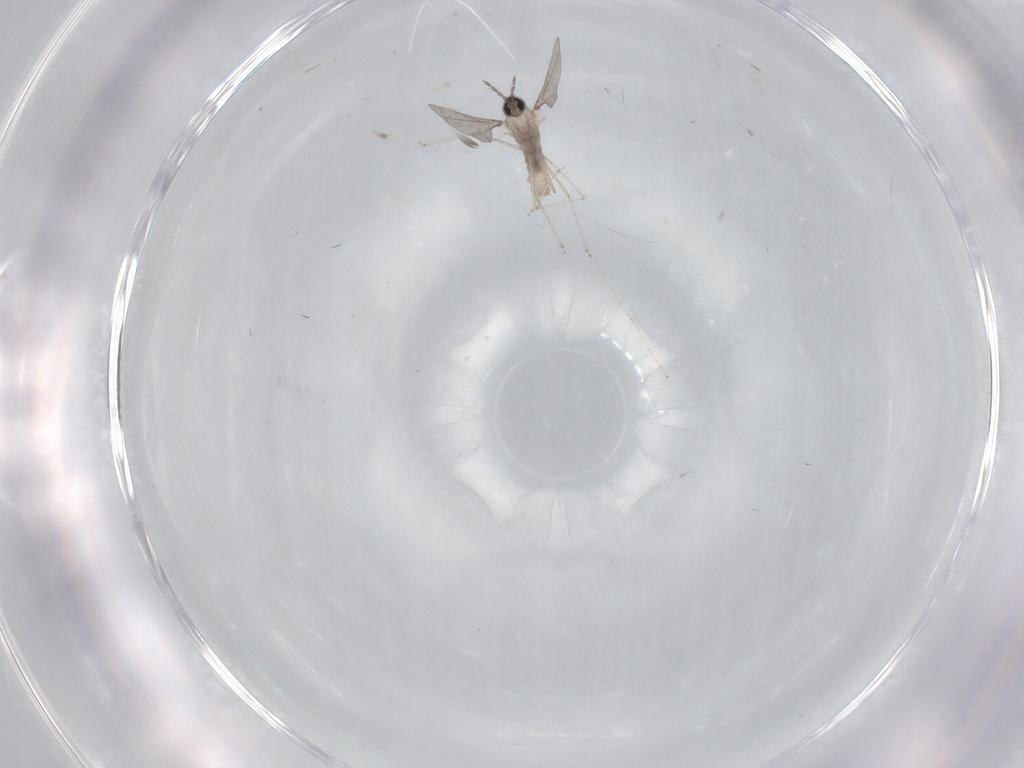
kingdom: Animalia
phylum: Arthropoda
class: Insecta
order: Diptera
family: Phoridae
